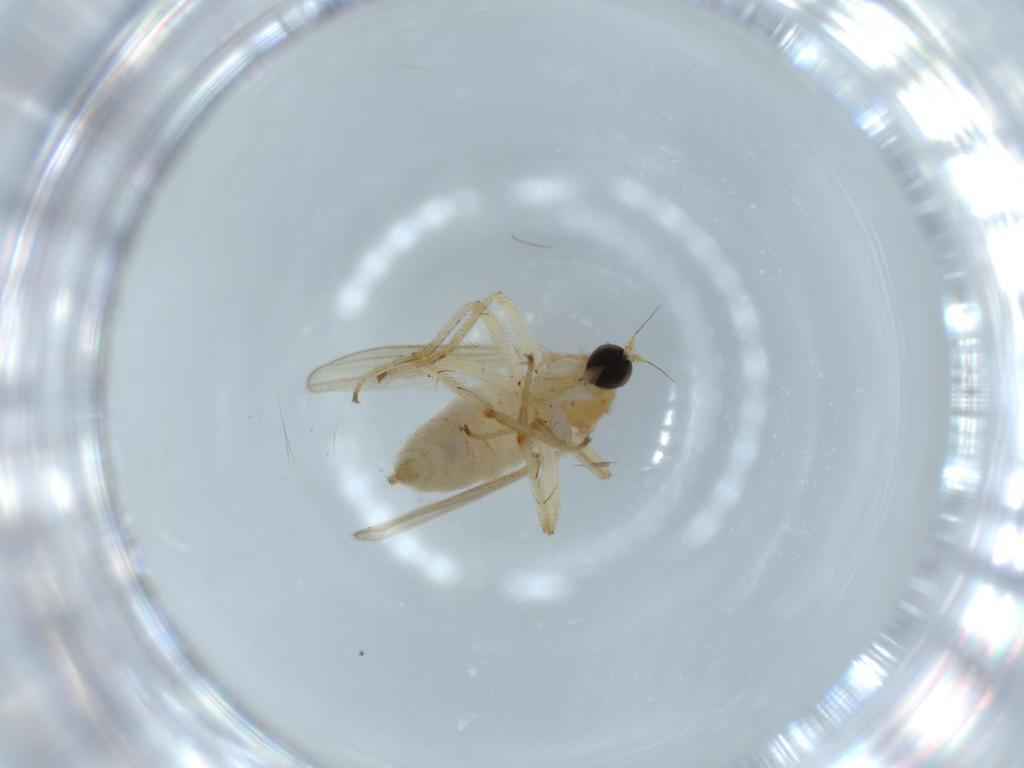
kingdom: Animalia
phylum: Arthropoda
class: Insecta
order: Diptera
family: Hybotidae
